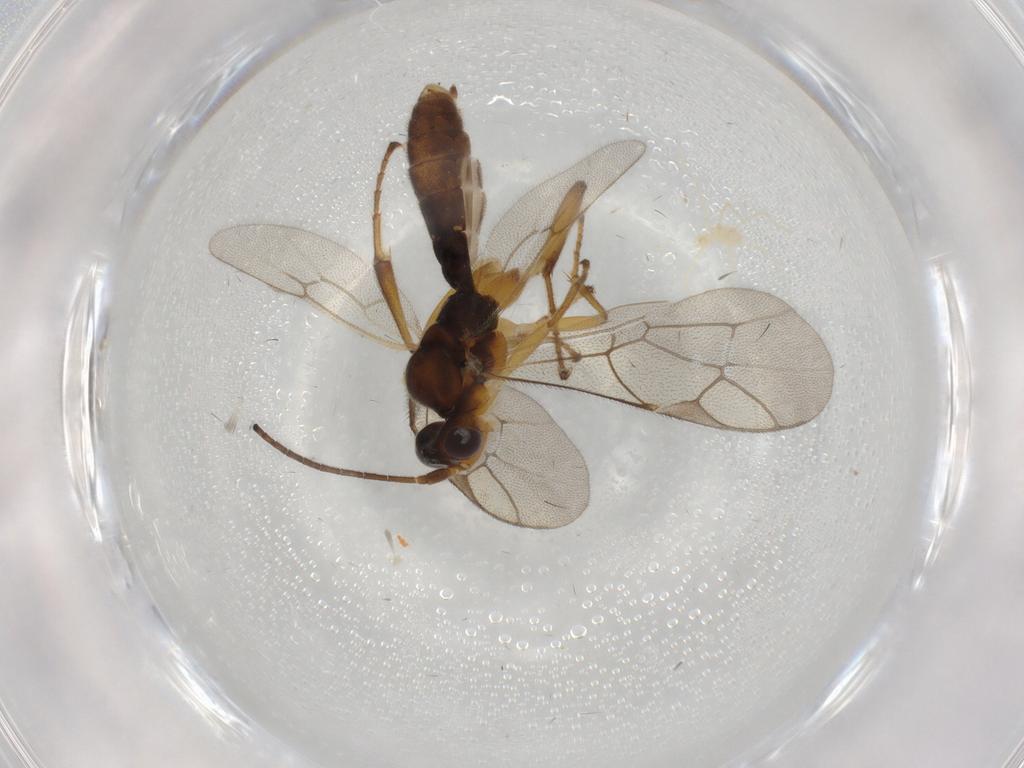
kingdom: Animalia
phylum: Arthropoda
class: Insecta
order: Hymenoptera
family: Ichneumonidae
